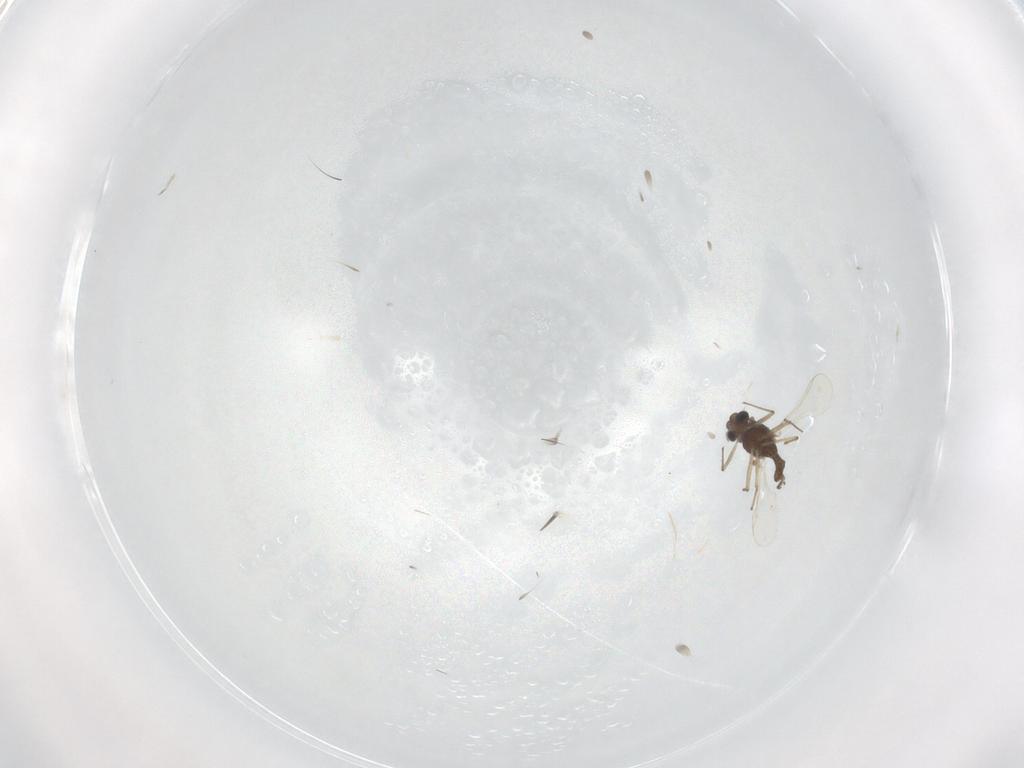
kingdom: Animalia
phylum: Arthropoda
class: Insecta
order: Diptera
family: Chironomidae
